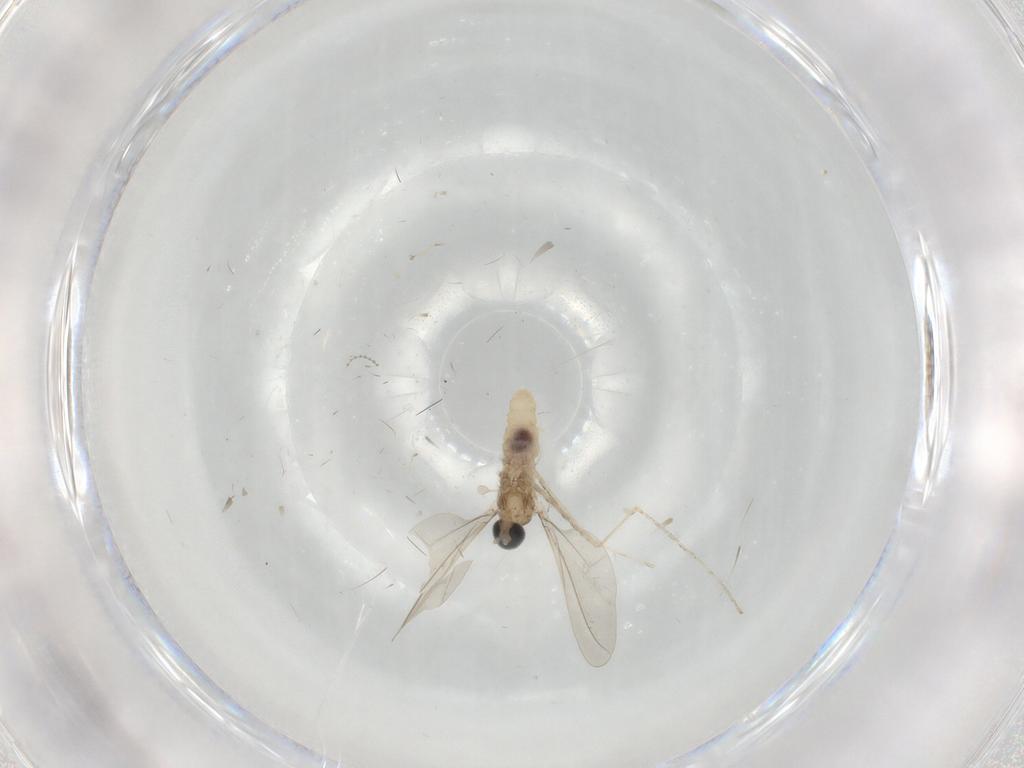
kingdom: Animalia
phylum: Arthropoda
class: Insecta
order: Diptera
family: Cecidomyiidae
